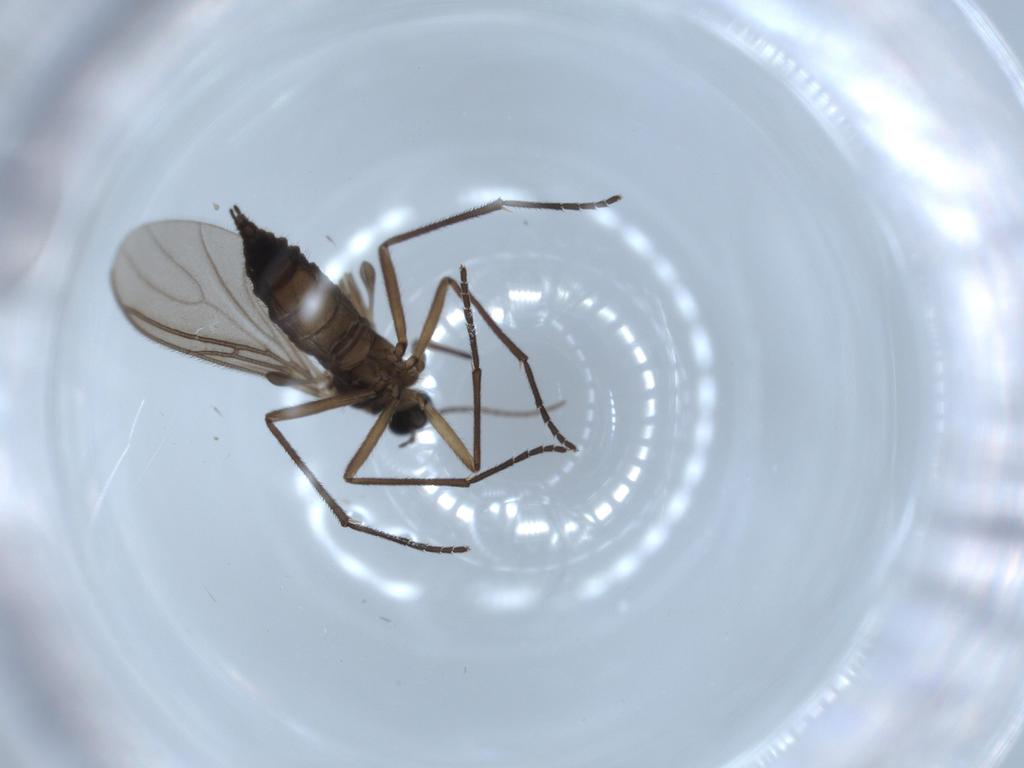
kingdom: Animalia
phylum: Arthropoda
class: Insecta
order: Diptera
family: Sciaridae
